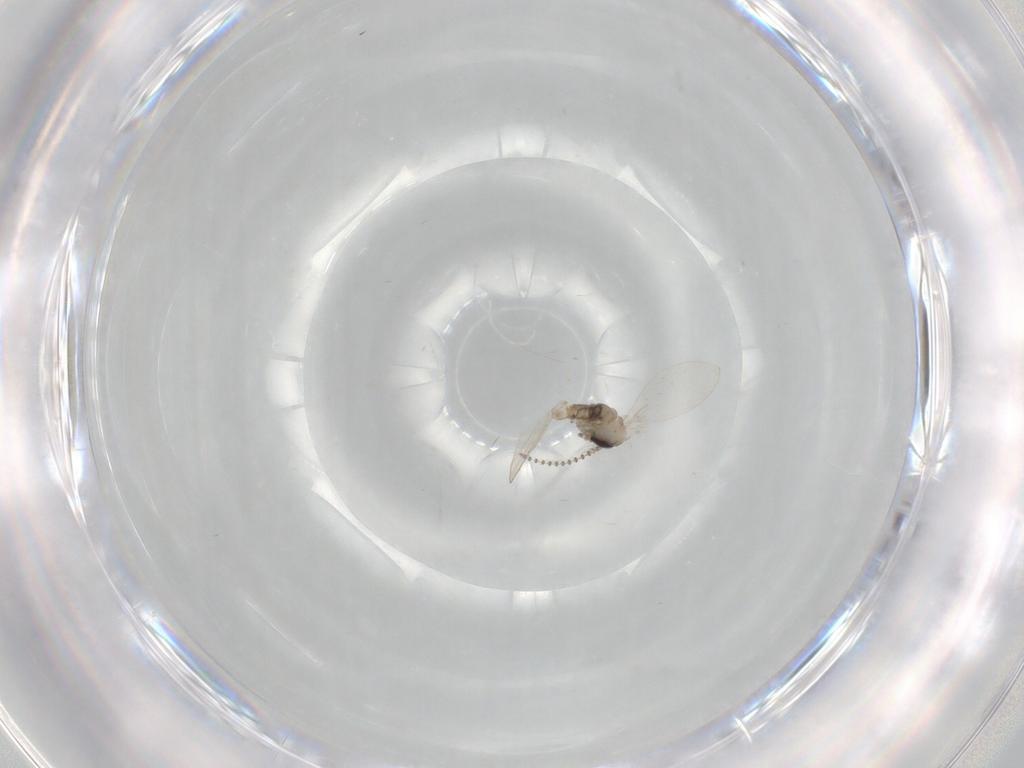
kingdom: Animalia
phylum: Arthropoda
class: Insecta
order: Diptera
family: Psychodidae
